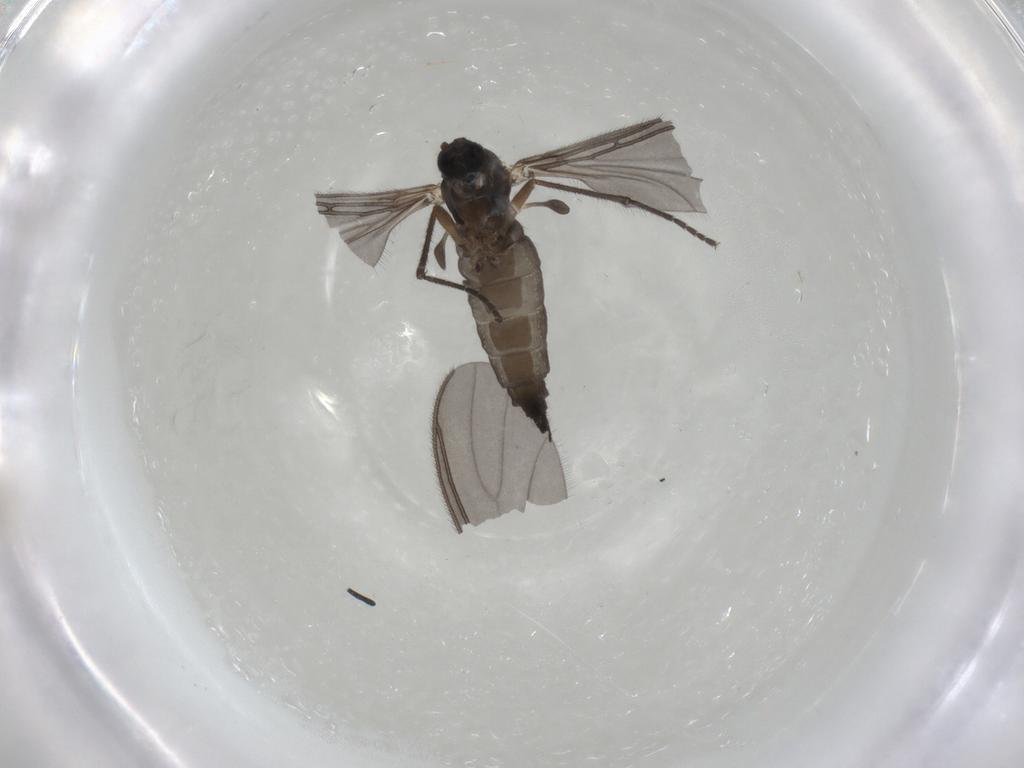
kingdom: Animalia
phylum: Arthropoda
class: Insecta
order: Diptera
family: Sciaridae
